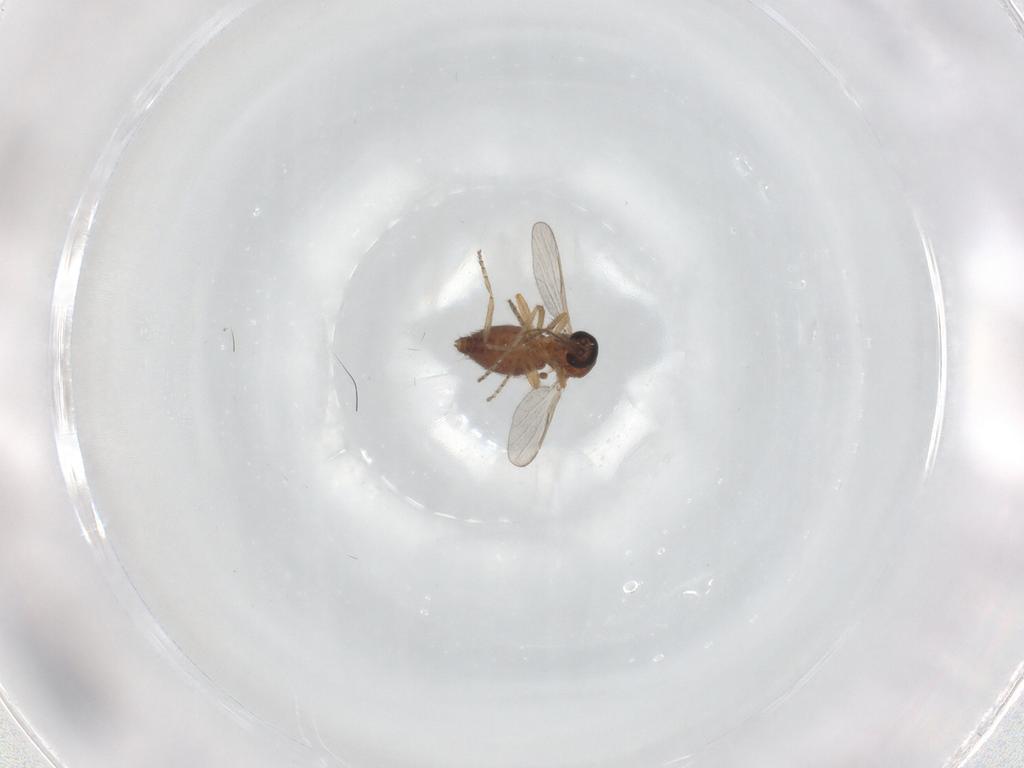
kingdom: Animalia
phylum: Arthropoda
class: Insecta
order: Diptera
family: Ceratopogonidae
